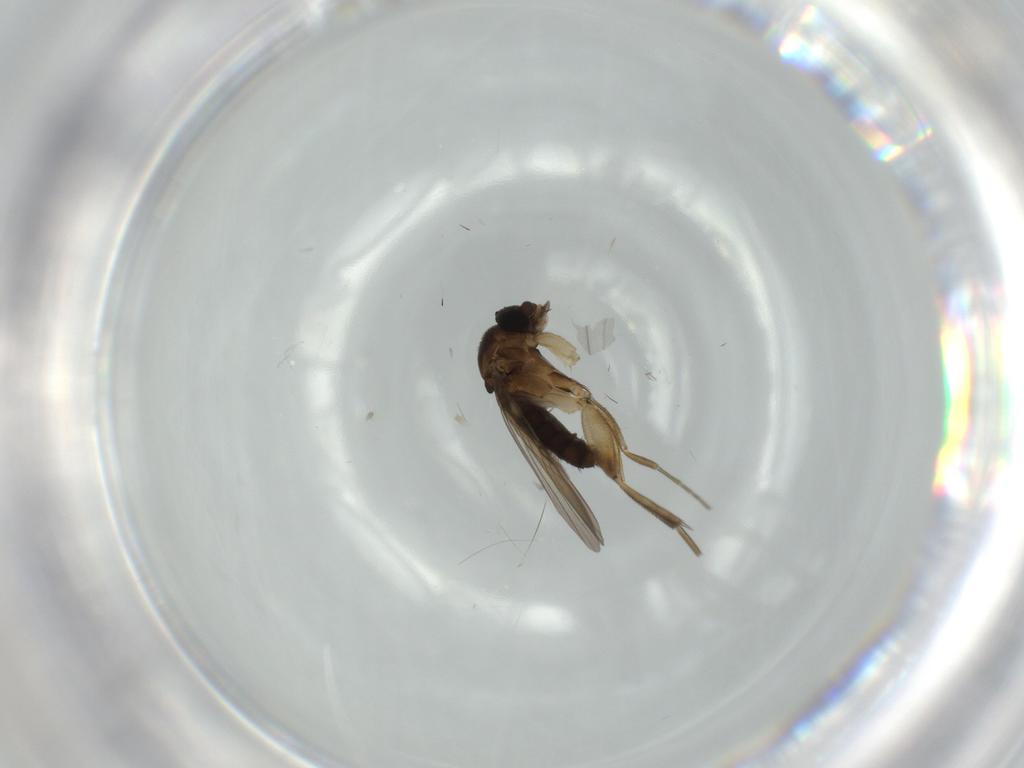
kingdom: Animalia
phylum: Arthropoda
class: Insecta
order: Diptera
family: Phoridae
